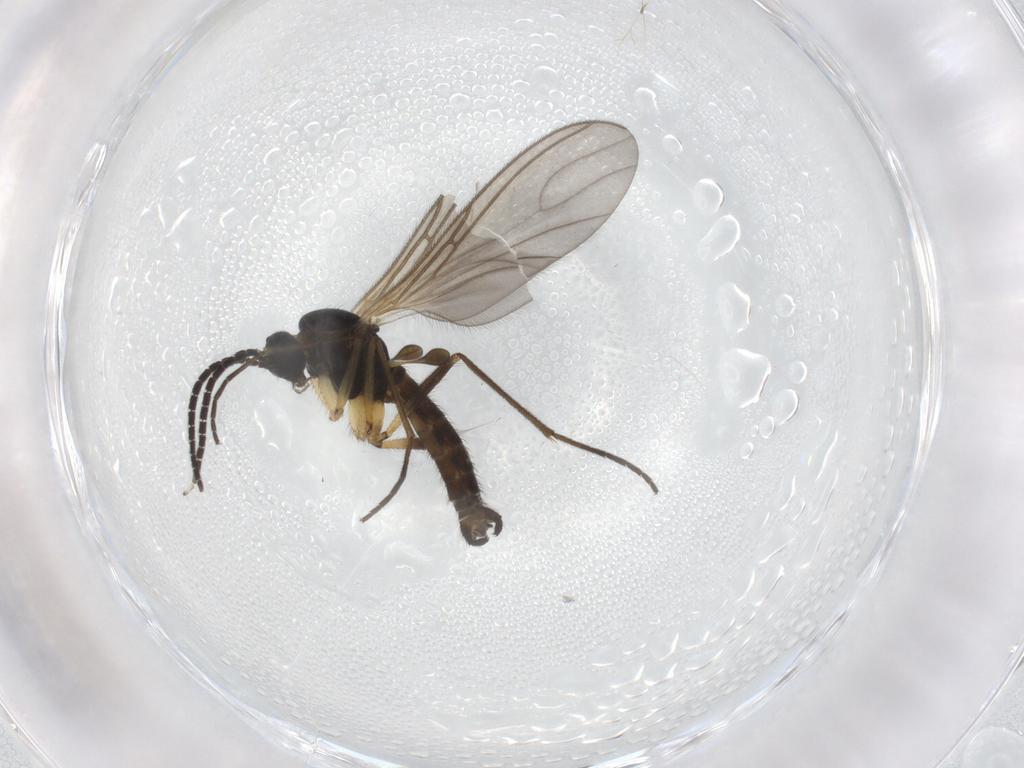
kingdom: Animalia
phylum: Arthropoda
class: Insecta
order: Diptera
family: Sciaridae
